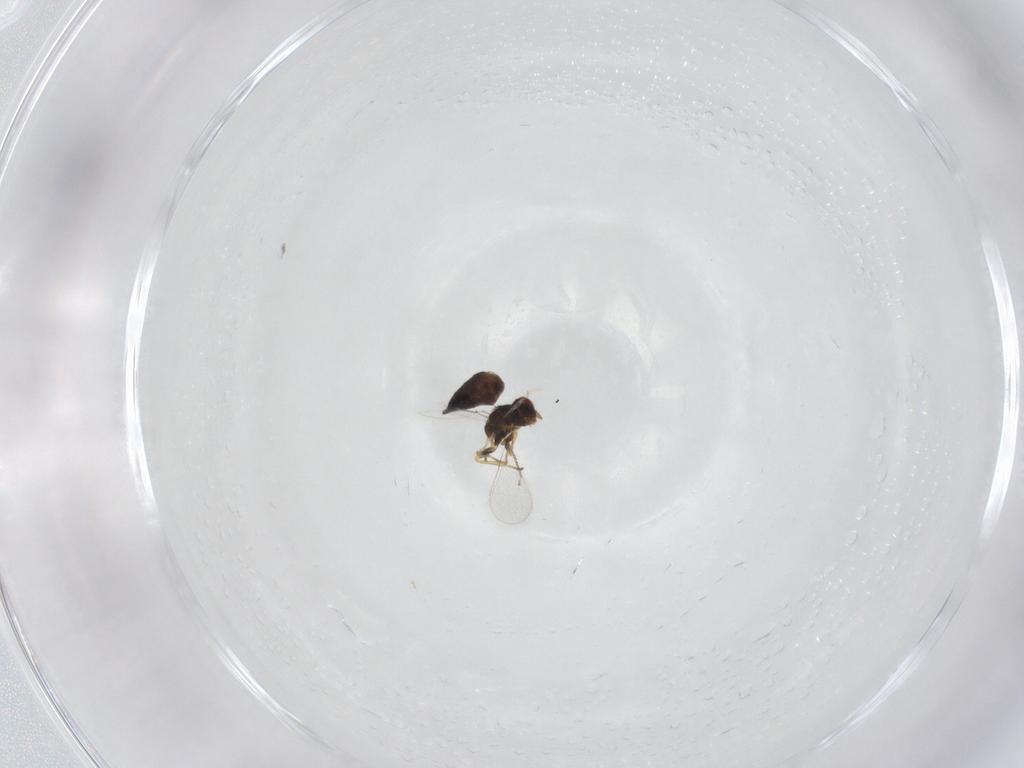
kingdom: Animalia
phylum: Arthropoda
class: Insecta
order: Hymenoptera
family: Eulophidae
